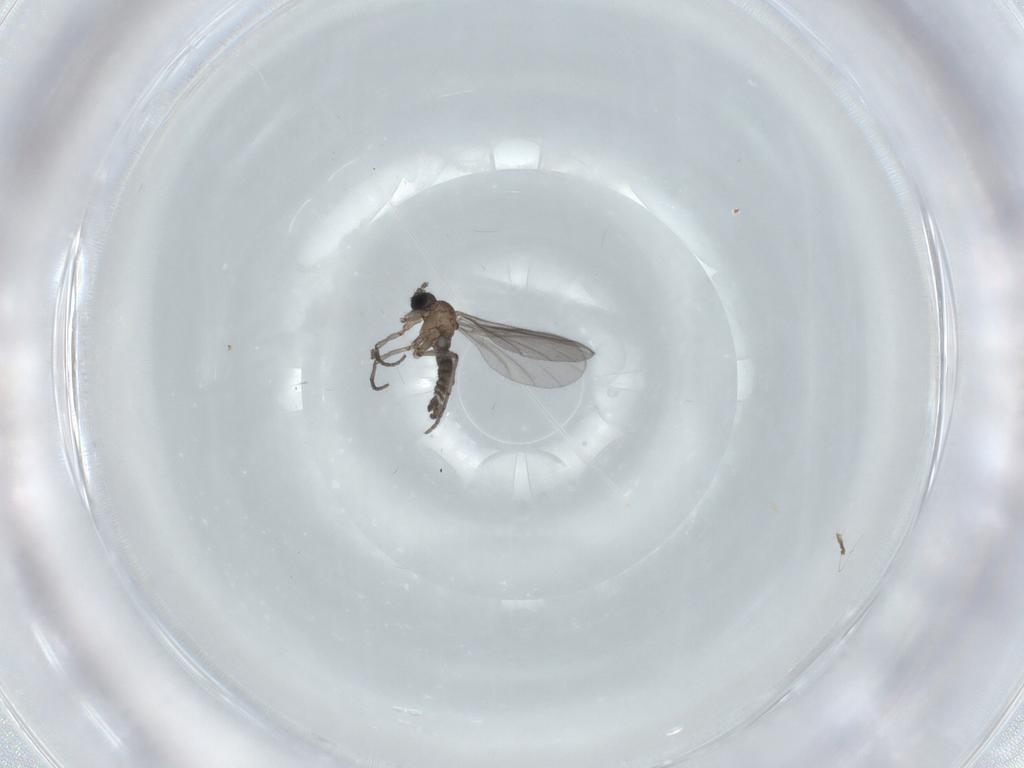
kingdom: Animalia
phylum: Arthropoda
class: Insecta
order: Diptera
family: Sciaridae
